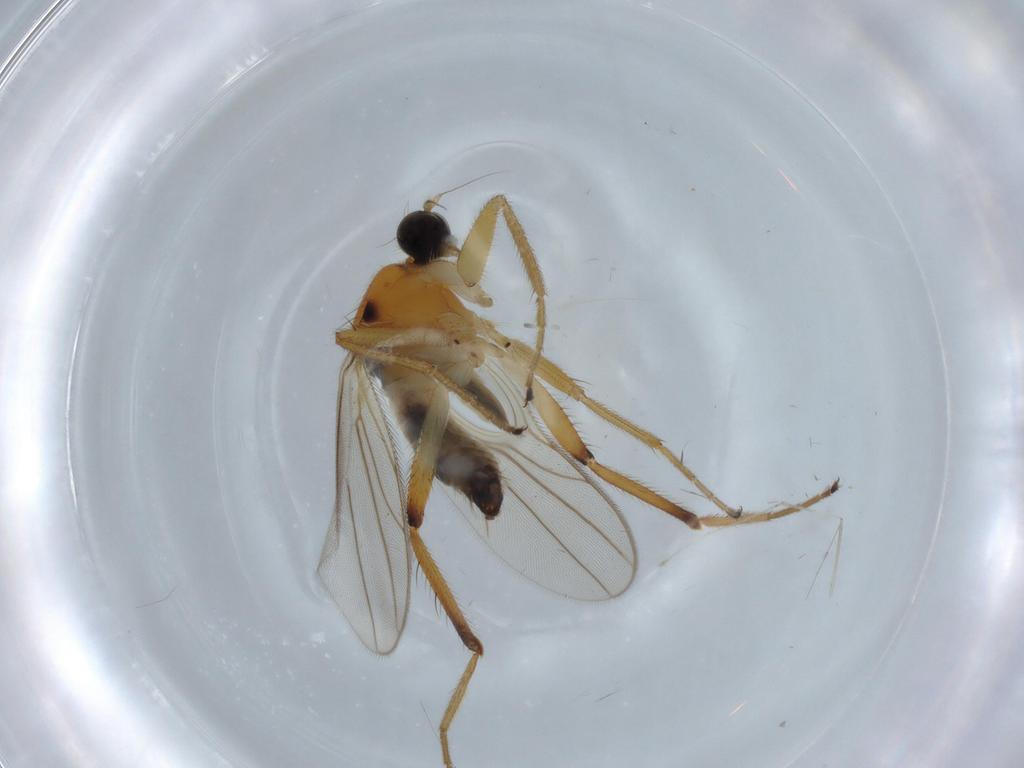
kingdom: Animalia
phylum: Arthropoda
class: Insecta
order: Diptera
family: Hybotidae
